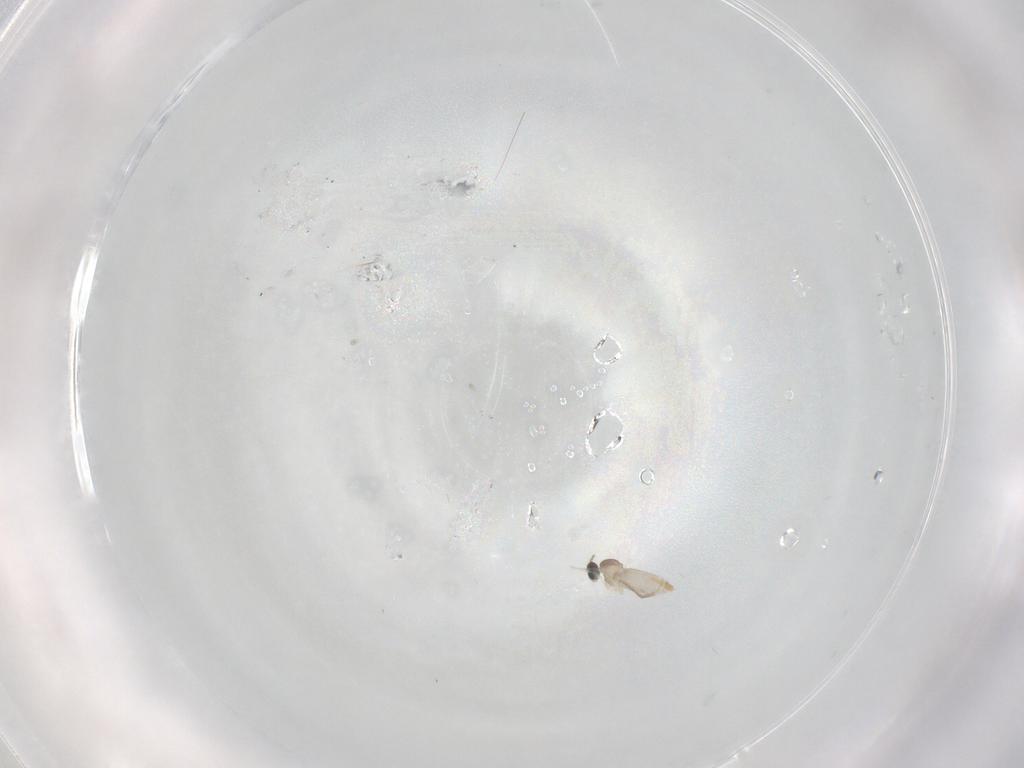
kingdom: Animalia
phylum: Arthropoda
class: Insecta
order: Diptera
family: Cecidomyiidae
